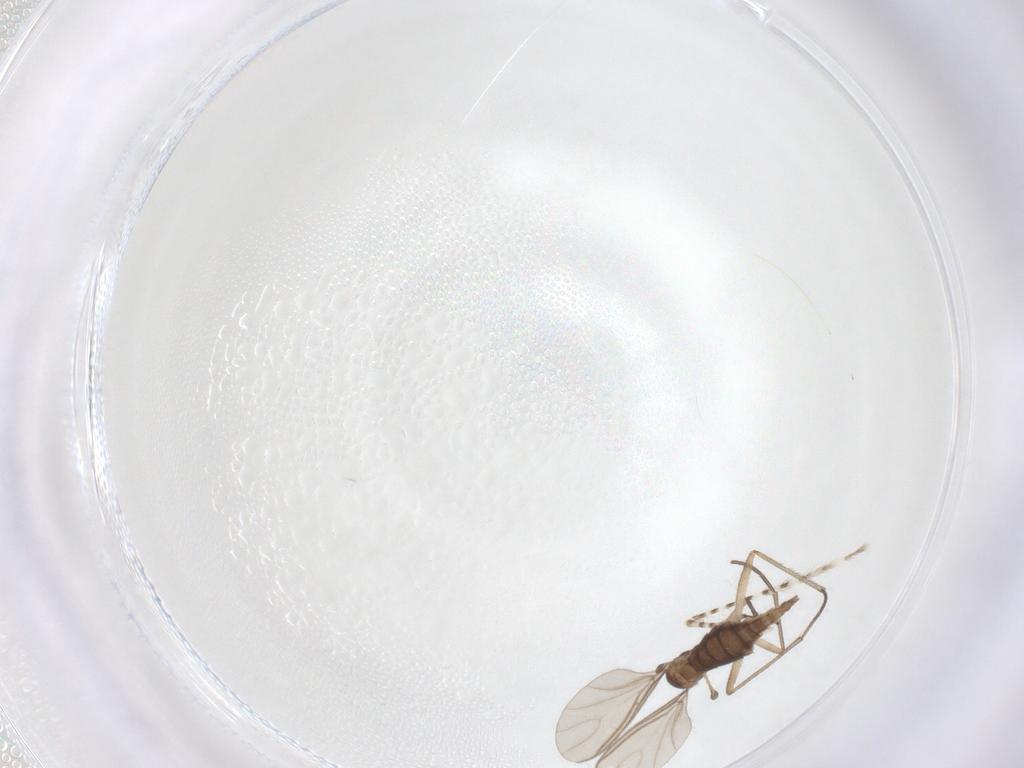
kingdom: Animalia
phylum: Arthropoda
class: Insecta
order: Diptera
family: Sciaridae
